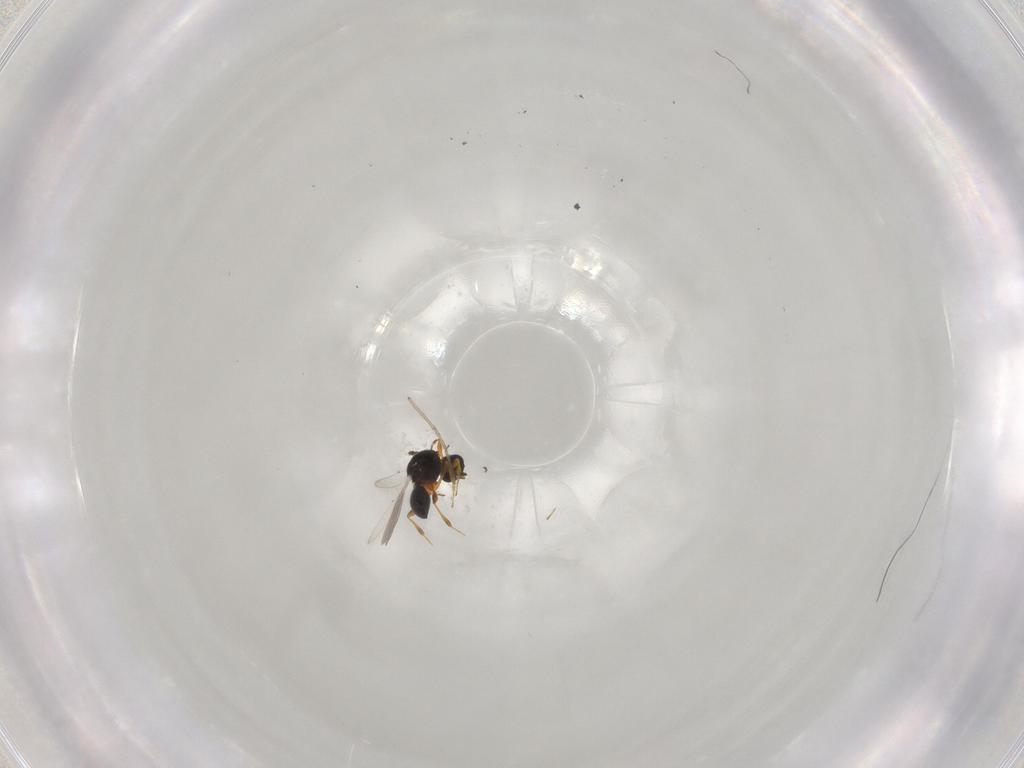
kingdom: Animalia
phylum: Arthropoda
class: Insecta
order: Hymenoptera
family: Platygastridae
